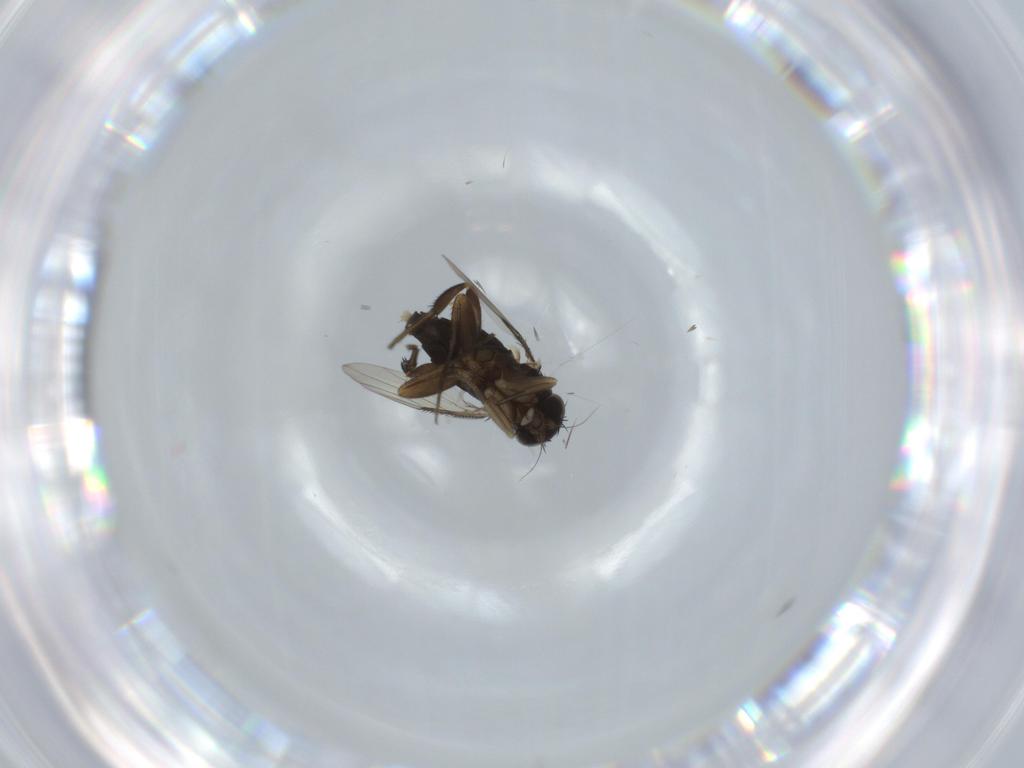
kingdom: Animalia
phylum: Arthropoda
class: Insecta
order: Diptera
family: Phoridae
